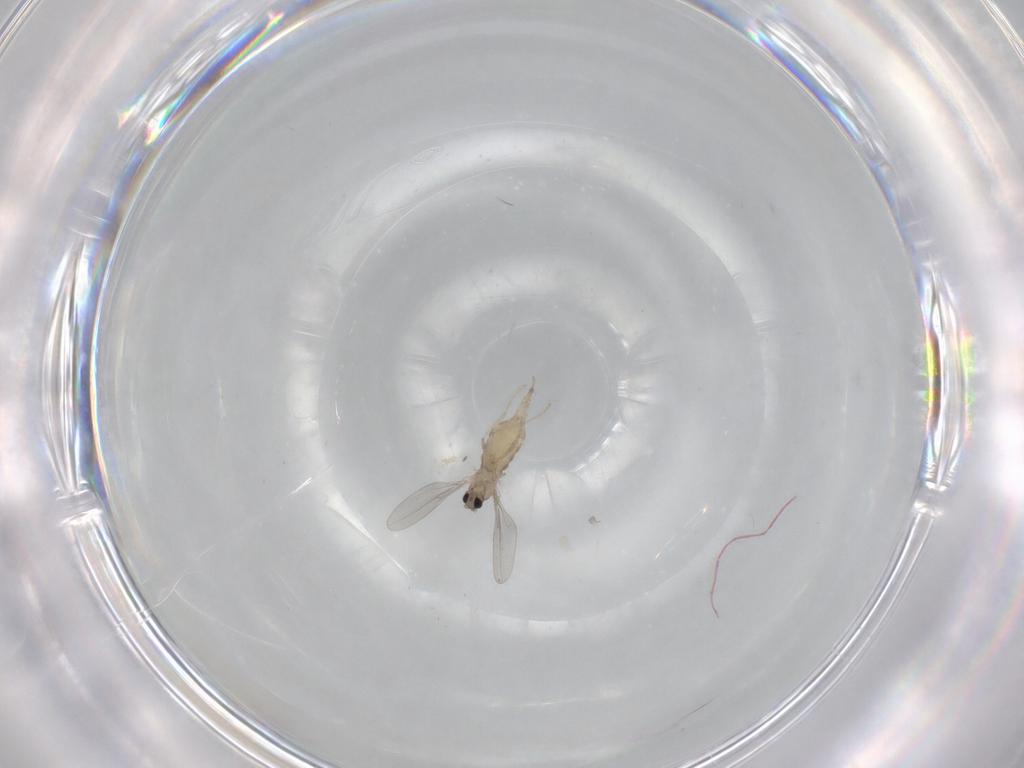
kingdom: Animalia
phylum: Arthropoda
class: Insecta
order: Diptera
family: Cecidomyiidae
